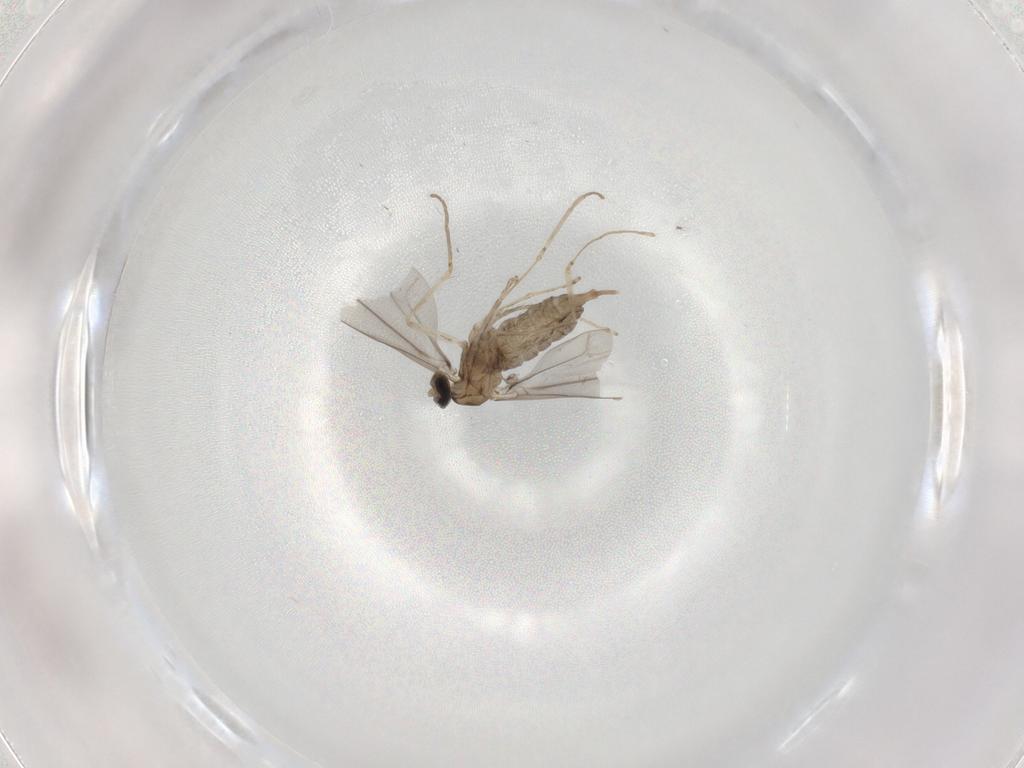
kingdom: Animalia
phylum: Arthropoda
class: Insecta
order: Diptera
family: Cecidomyiidae
